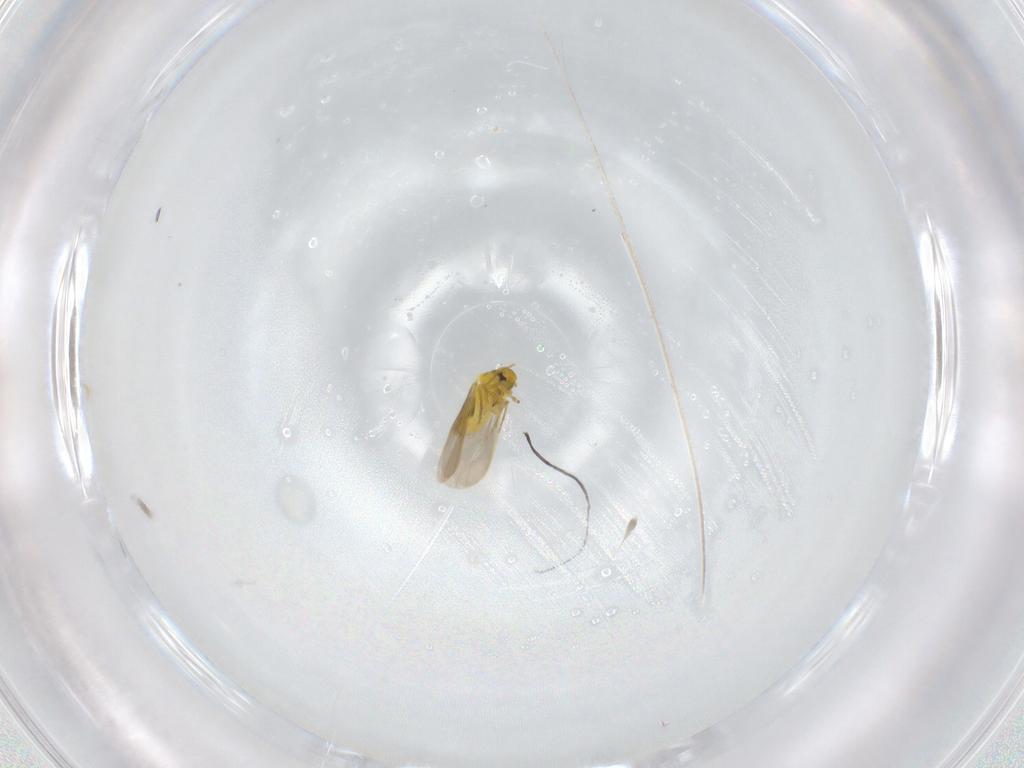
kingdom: Animalia
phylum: Arthropoda
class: Insecta
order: Hemiptera
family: Aleyrodidae
